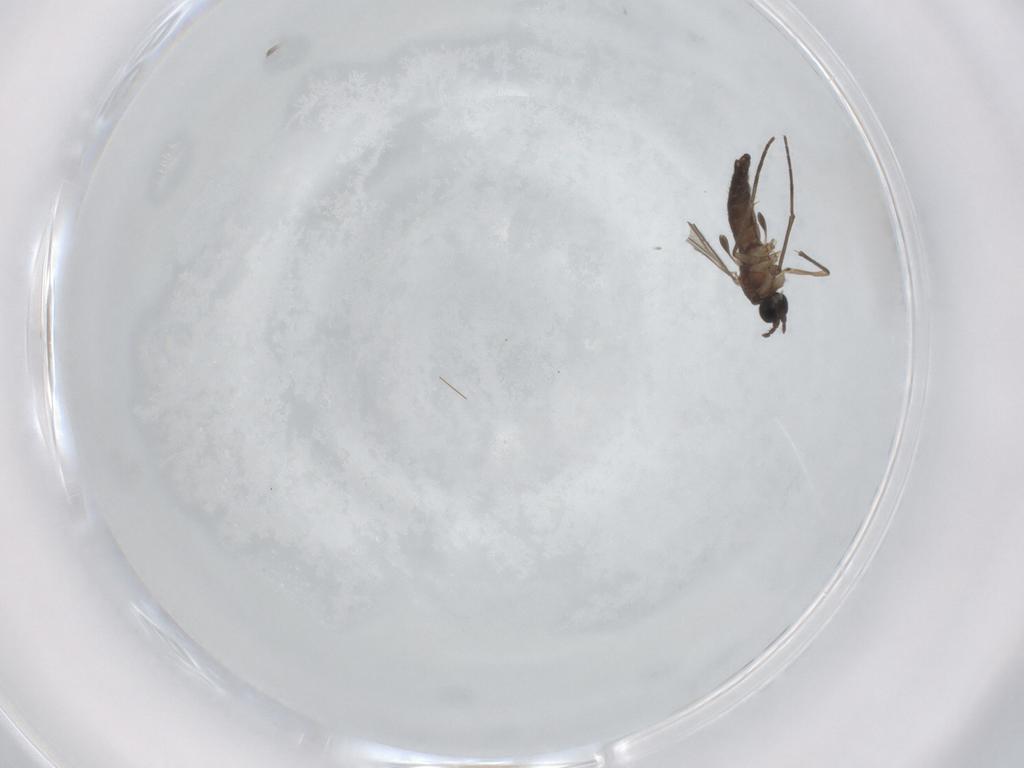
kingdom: Animalia
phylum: Arthropoda
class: Insecta
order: Diptera
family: Sciaridae
